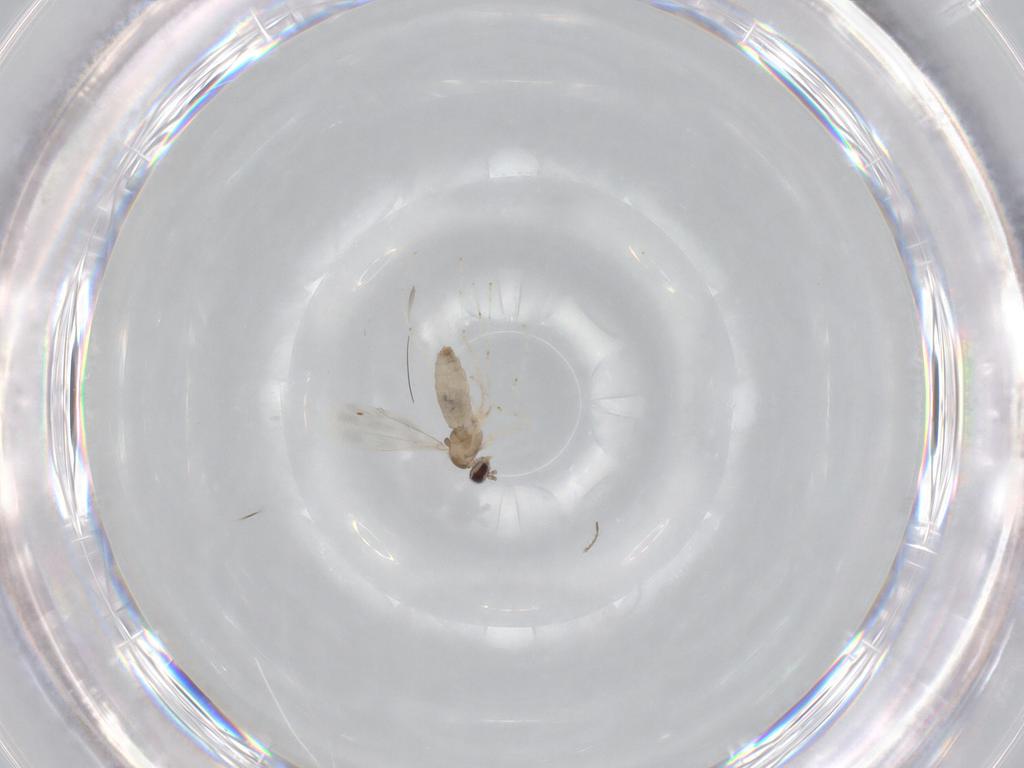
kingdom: Animalia
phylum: Arthropoda
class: Insecta
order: Diptera
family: Cecidomyiidae
